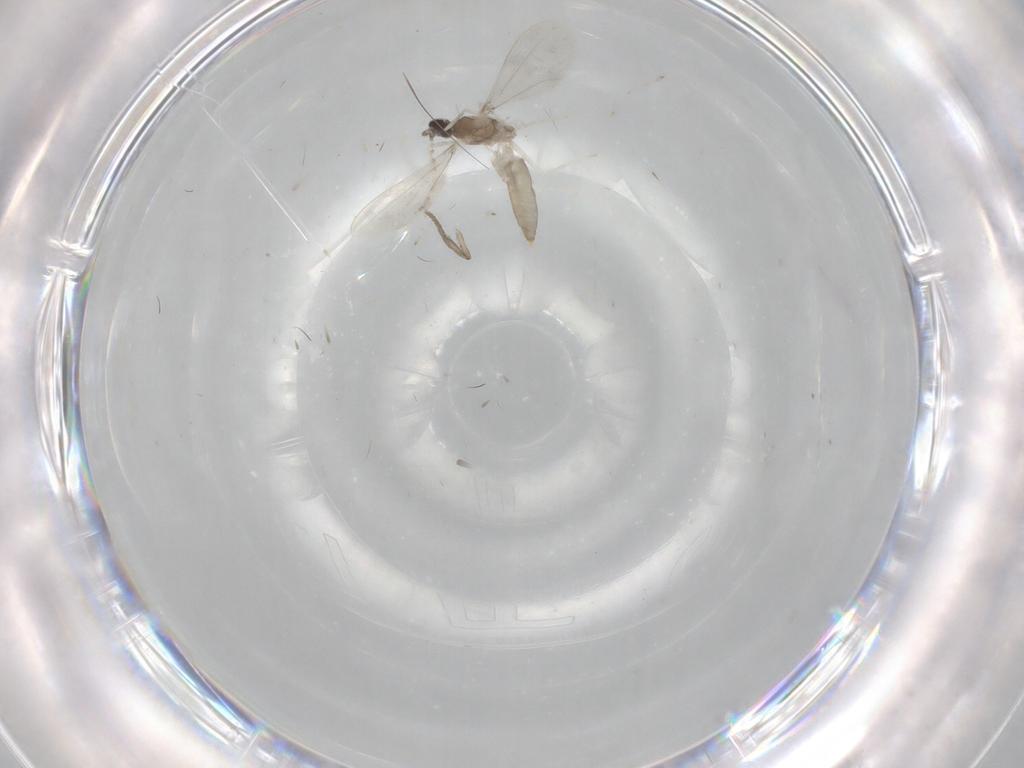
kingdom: Animalia
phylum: Arthropoda
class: Insecta
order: Diptera
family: Cecidomyiidae
